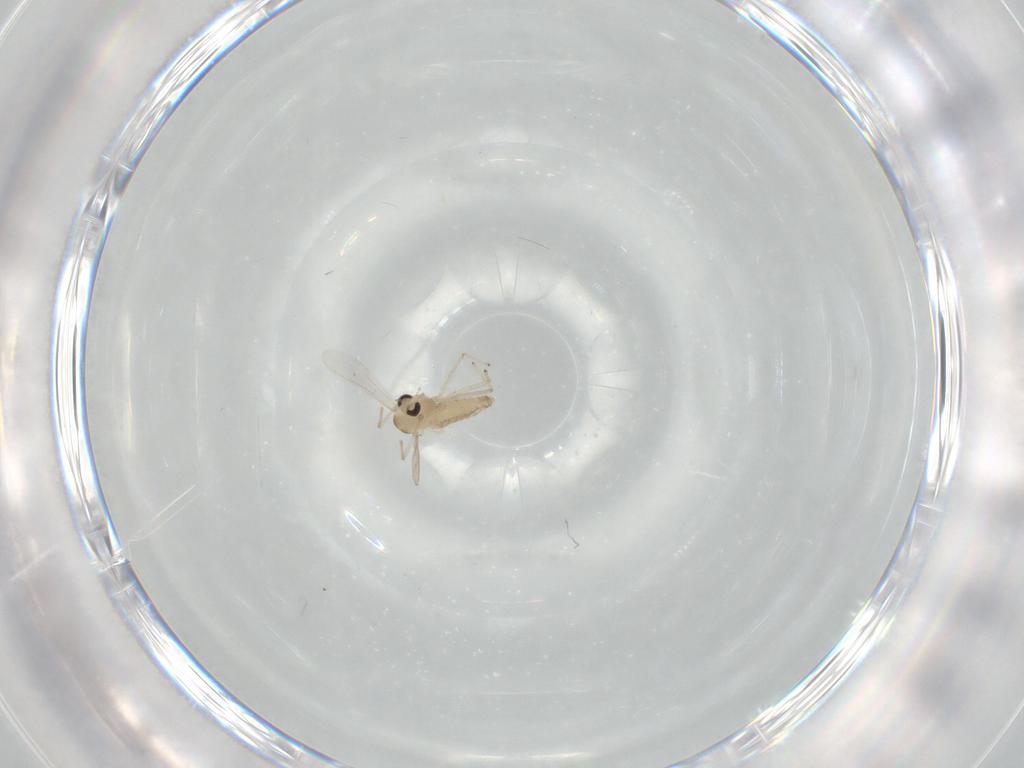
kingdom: Animalia
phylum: Arthropoda
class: Insecta
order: Diptera
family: Chironomidae
